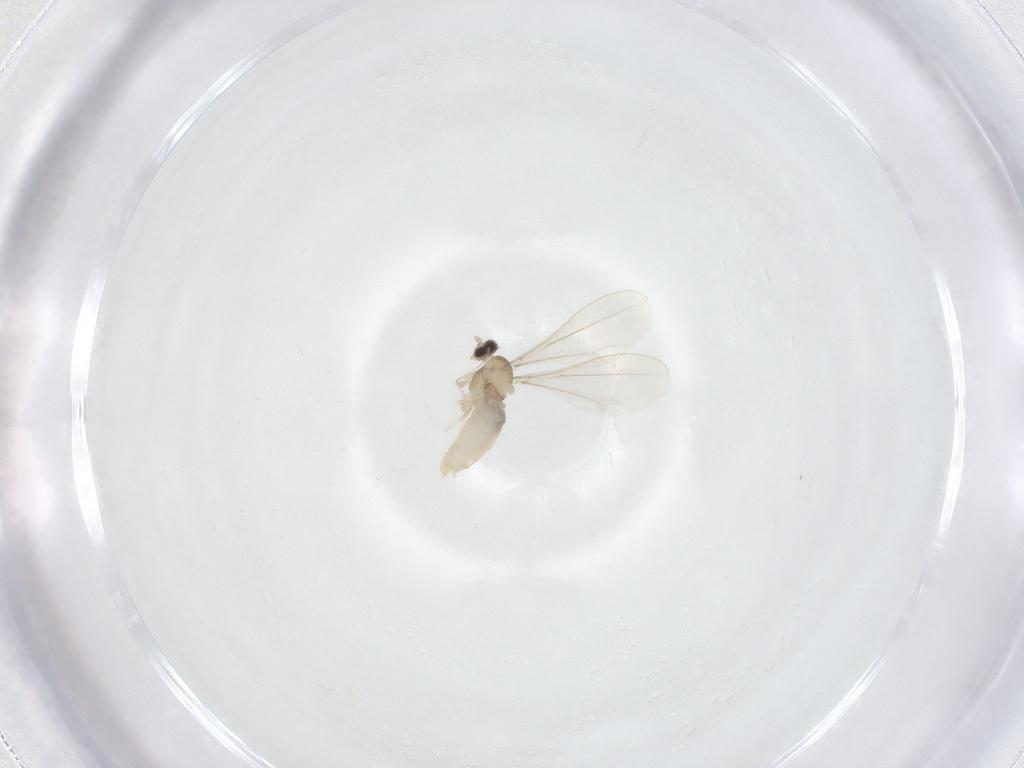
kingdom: Animalia
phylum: Arthropoda
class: Insecta
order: Diptera
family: Cecidomyiidae
